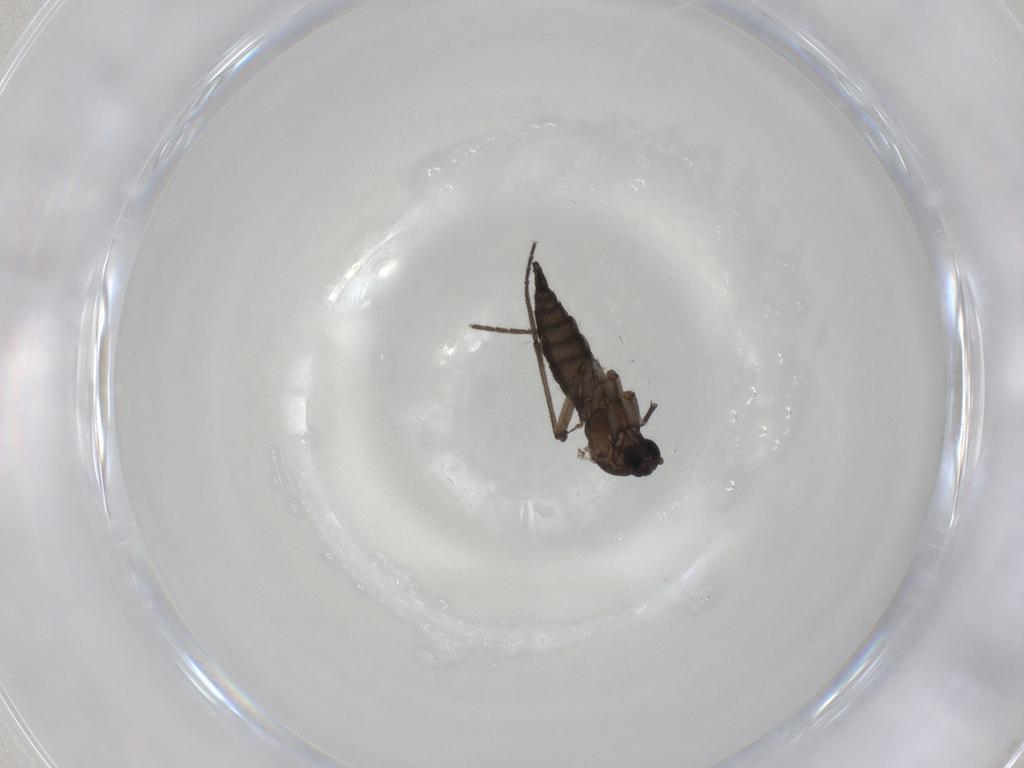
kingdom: Animalia
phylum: Arthropoda
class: Insecta
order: Diptera
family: Sciaridae
